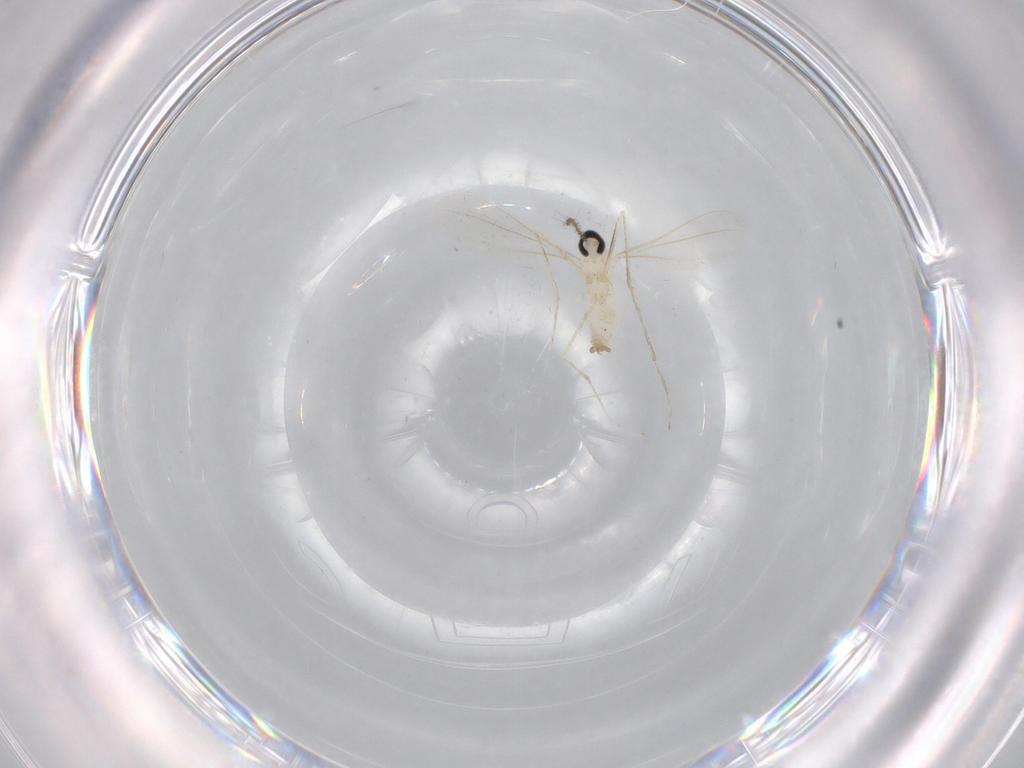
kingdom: Animalia
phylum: Arthropoda
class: Insecta
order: Diptera
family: Cecidomyiidae
